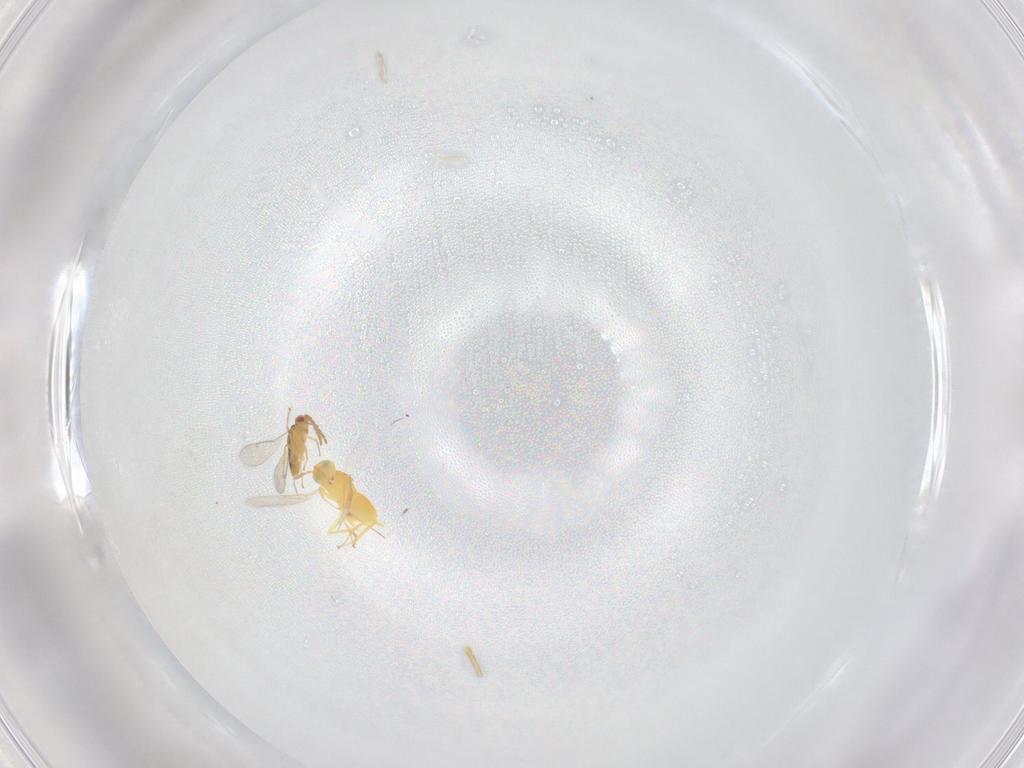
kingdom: Animalia
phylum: Arthropoda
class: Insecta
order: Hymenoptera
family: Aphelinidae
